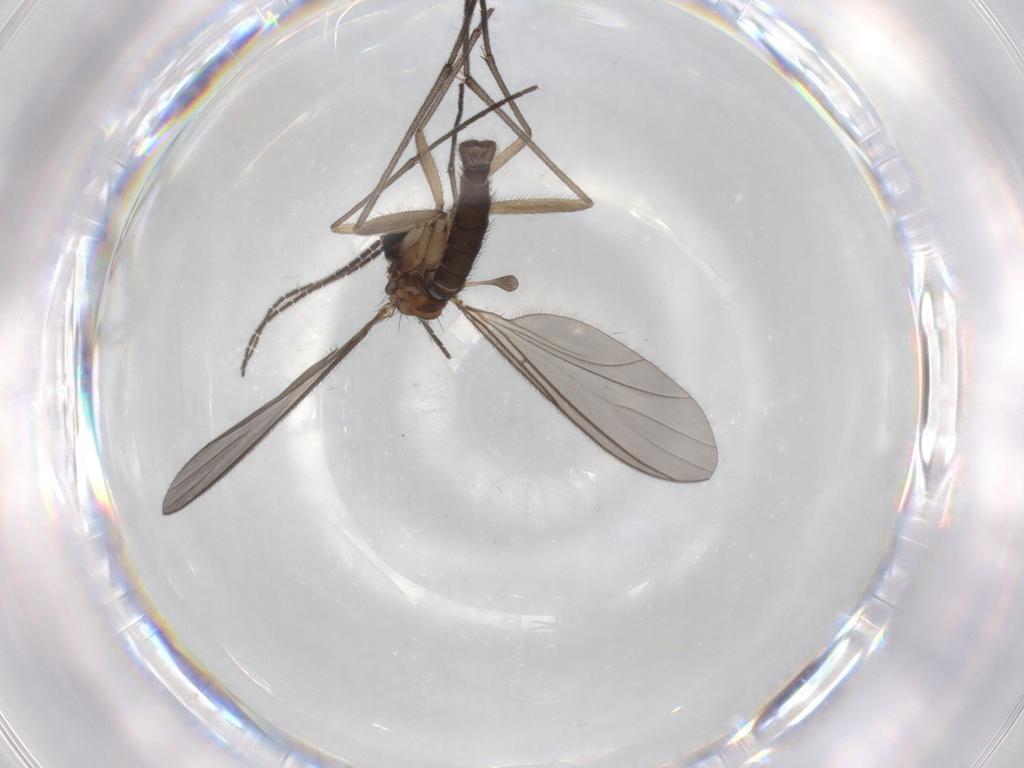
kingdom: Animalia
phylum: Arthropoda
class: Insecta
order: Diptera
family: Sciaridae
